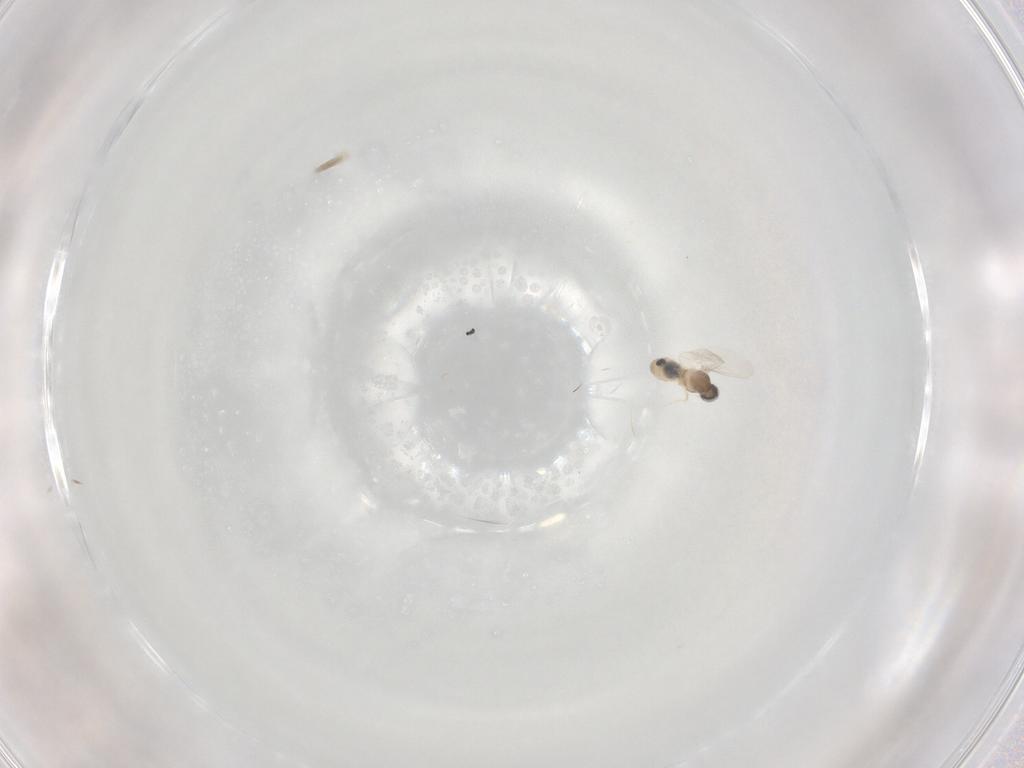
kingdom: Animalia
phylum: Arthropoda
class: Insecta
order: Diptera
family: Cecidomyiidae
